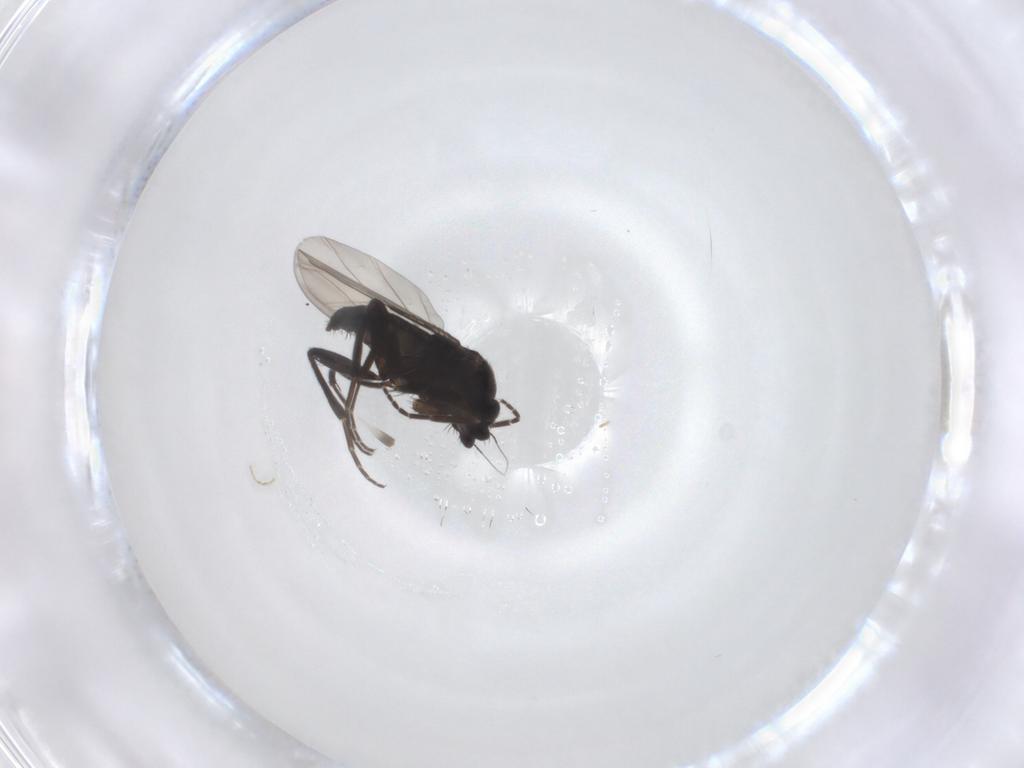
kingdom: Animalia
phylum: Arthropoda
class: Insecta
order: Diptera
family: Phoridae
